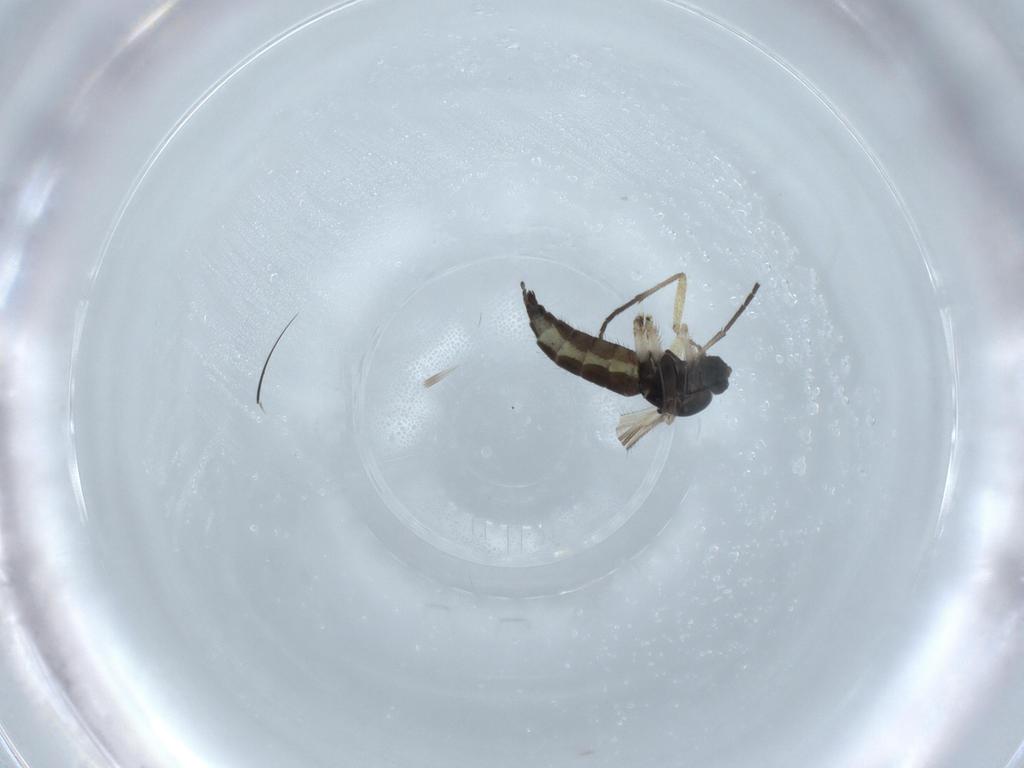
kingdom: Animalia
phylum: Arthropoda
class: Insecta
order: Diptera
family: Sciaridae
